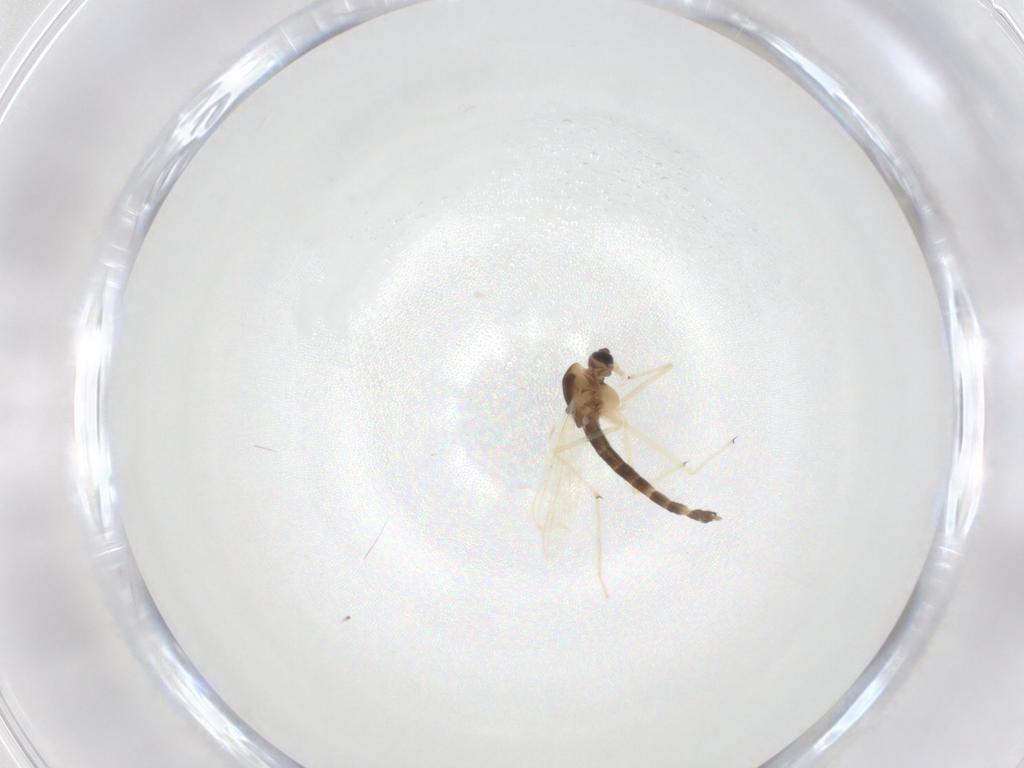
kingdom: Animalia
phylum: Arthropoda
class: Insecta
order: Diptera
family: Chironomidae
